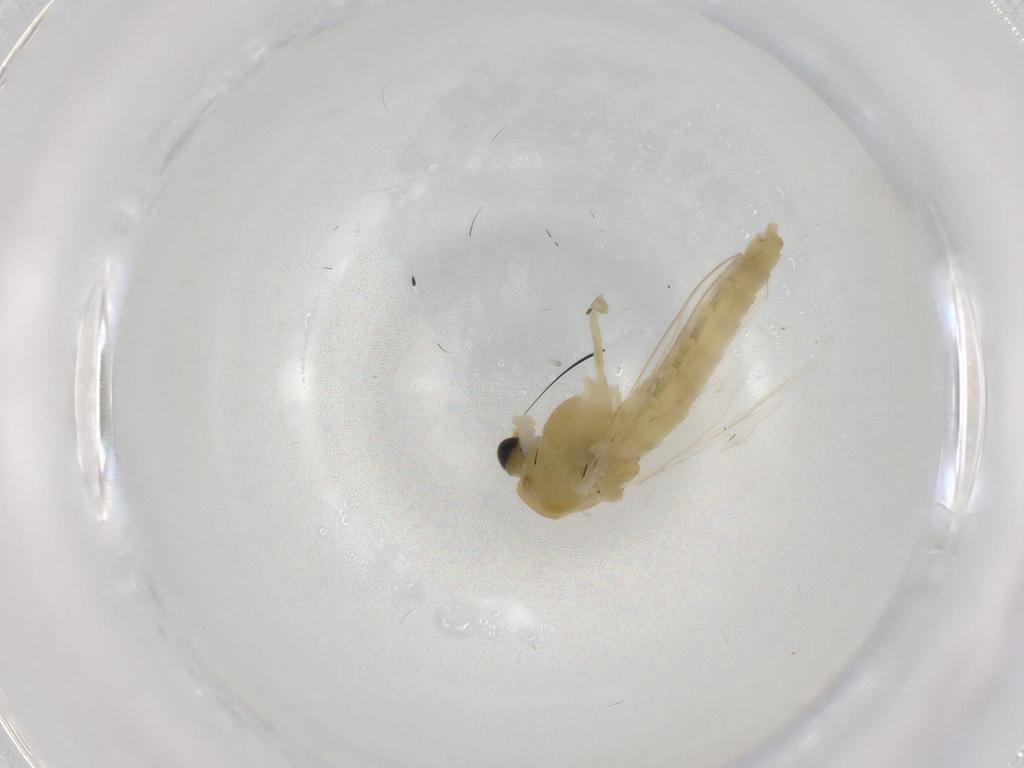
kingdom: Animalia
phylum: Arthropoda
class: Insecta
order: Diptera
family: Chironomidae
